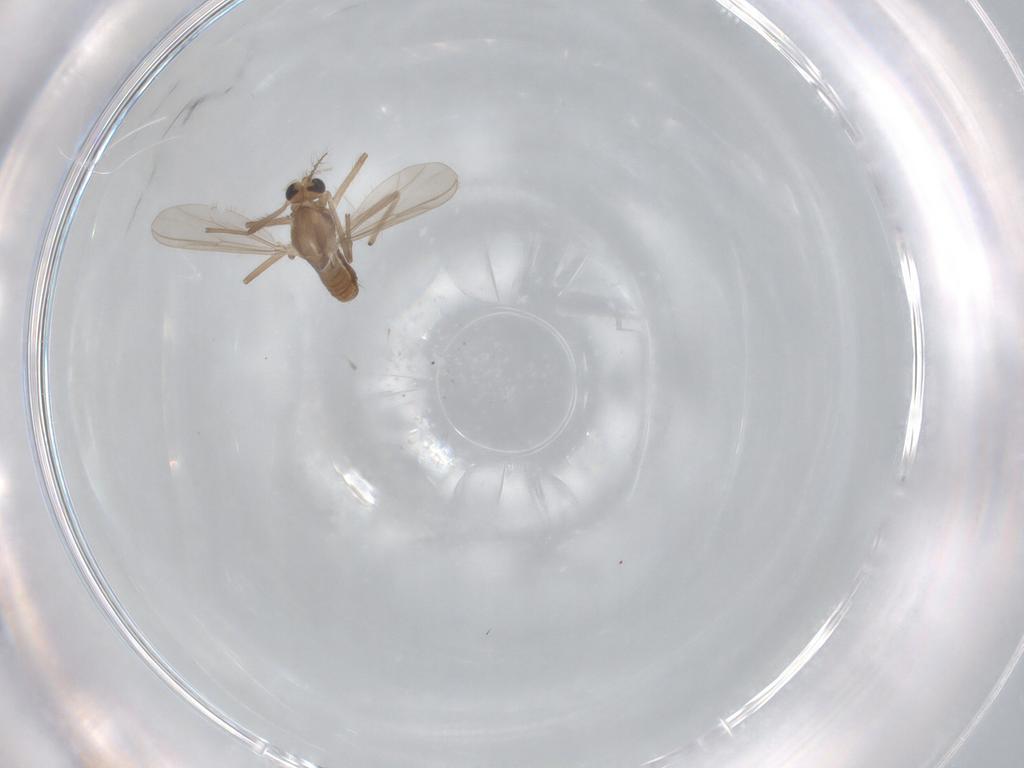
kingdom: Animalia
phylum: Arthropoda
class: Insecta
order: Diptera
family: Chironomidae
